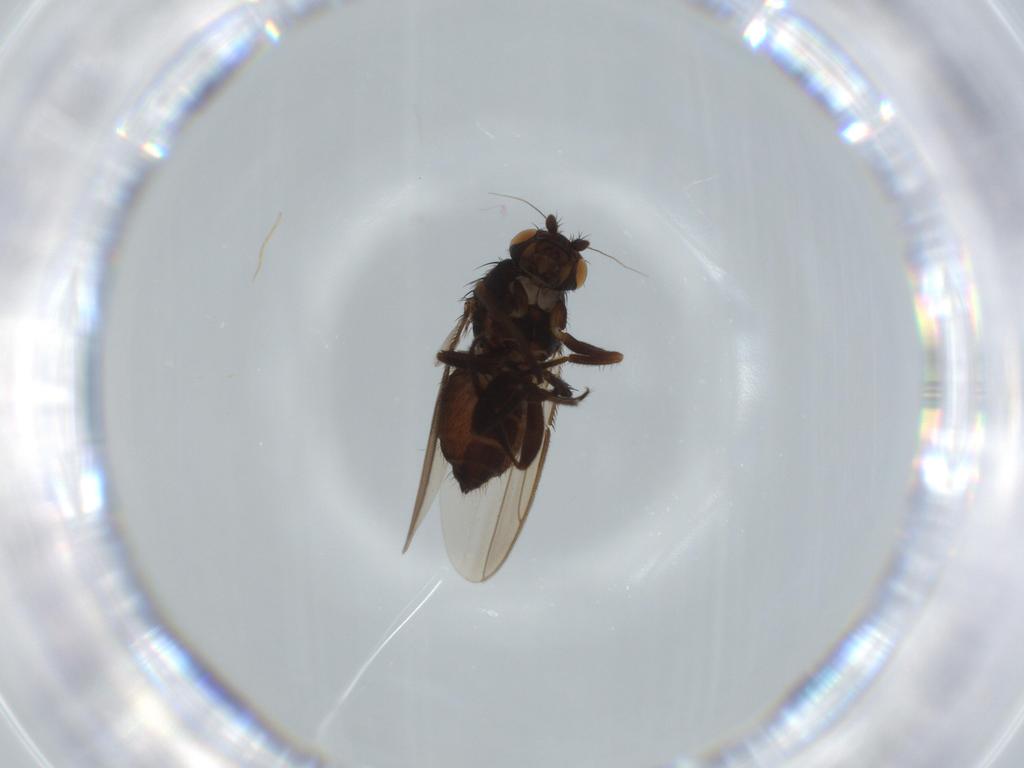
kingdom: Animalia
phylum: Arthropoda
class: Insecta
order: Diptera
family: Sphaeroceridae
